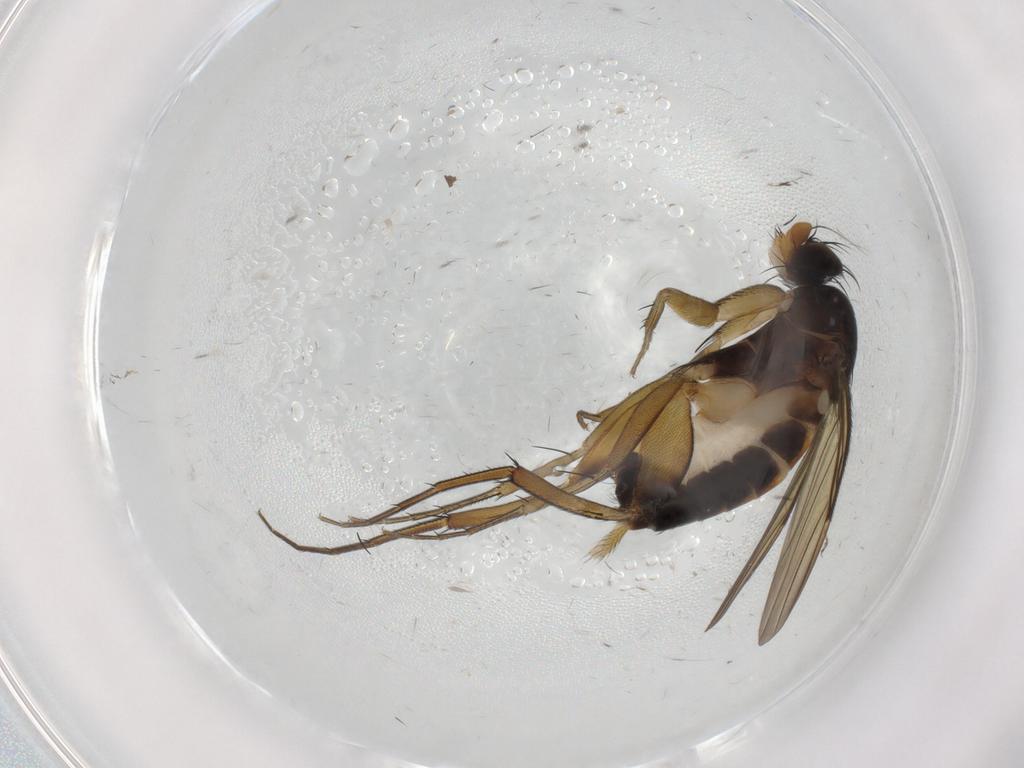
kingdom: Animalia
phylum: Arthropoda
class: Insecta
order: Diptera
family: Phoridae
